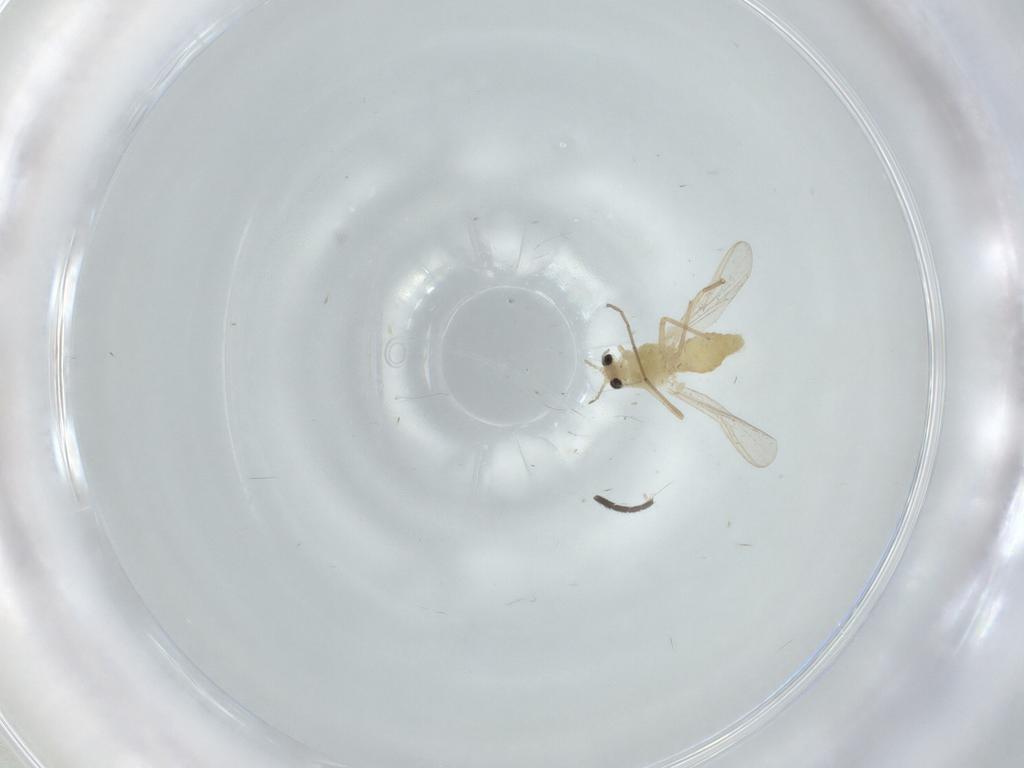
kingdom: Animalia
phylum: Arthropoda
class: Insecta
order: Diptera
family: Chironomidae
